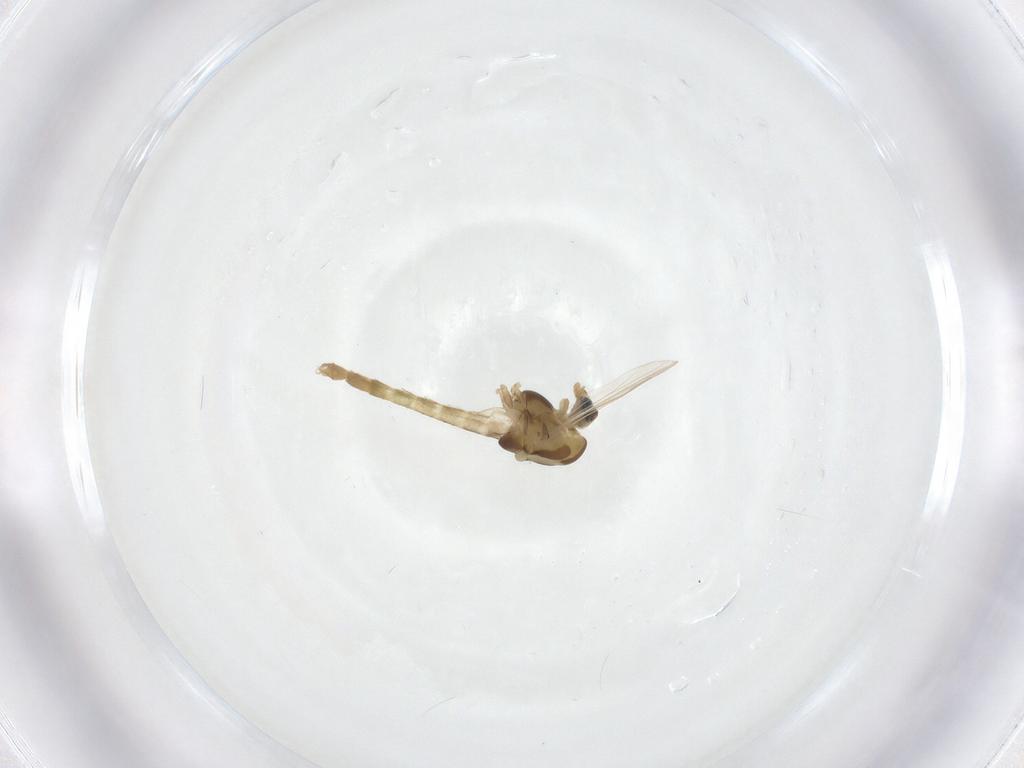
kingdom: Animalia
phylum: Arthropoda
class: Insecta
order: Diptera
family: Chironomidae
